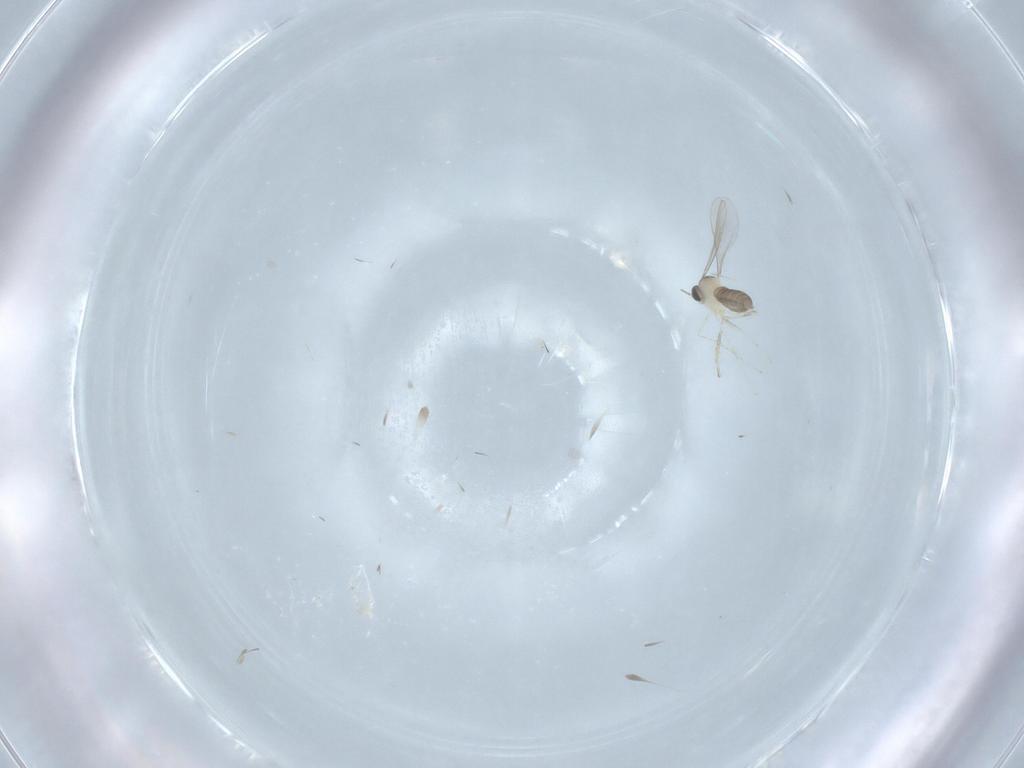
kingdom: Animalia
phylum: Arthropoda
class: Insecta
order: Diptera
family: Cecidomyiidae
